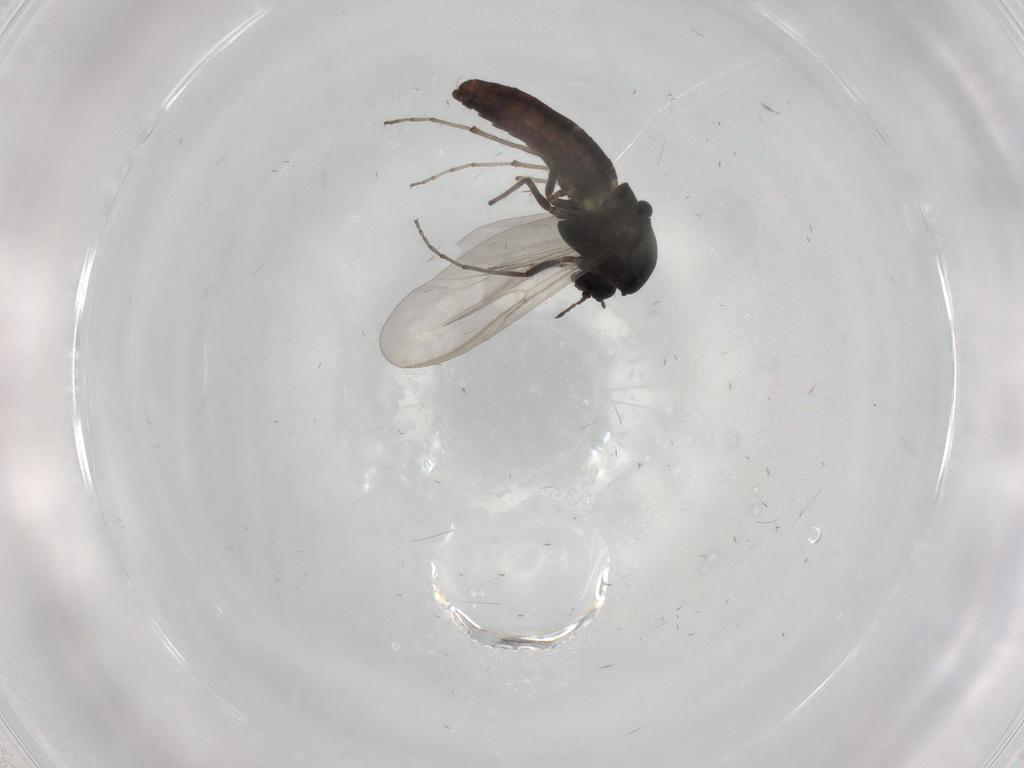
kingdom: Animalia
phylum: Arthropoda
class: Insecta
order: Diptera
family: Chironomidae
